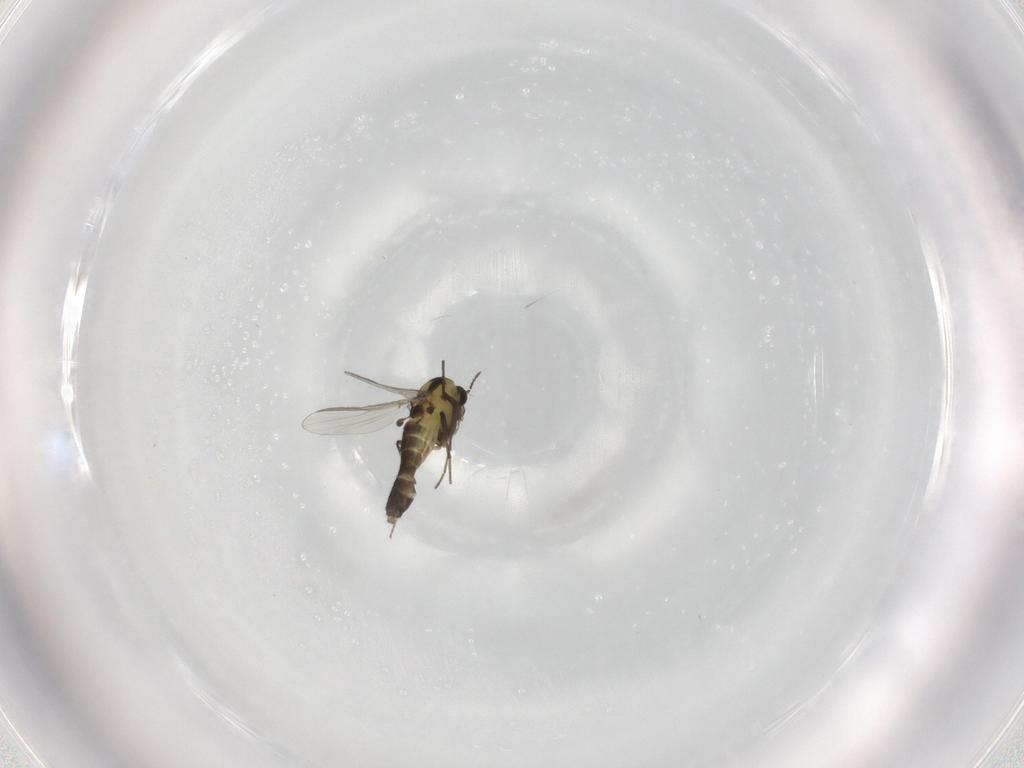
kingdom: Animalia
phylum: Arthropoda
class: Insecta
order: Diptera
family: Chironomidae
